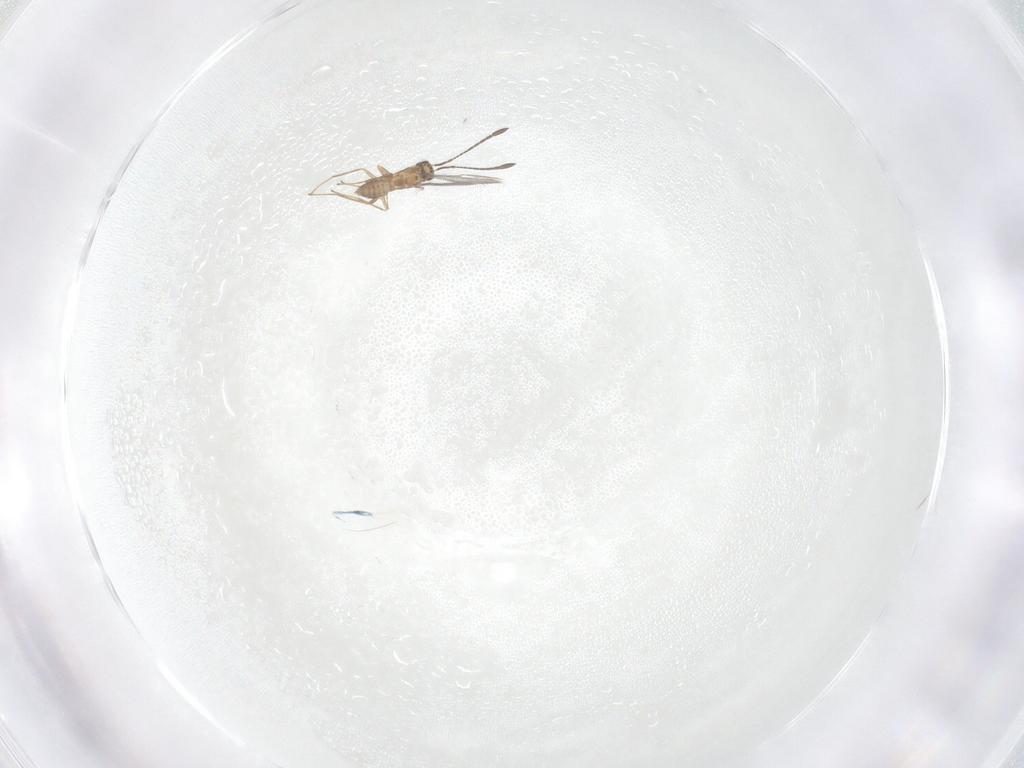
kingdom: Animalia
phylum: Arthropoda
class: Insecta
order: Hymenoptera
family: Mymaridae
